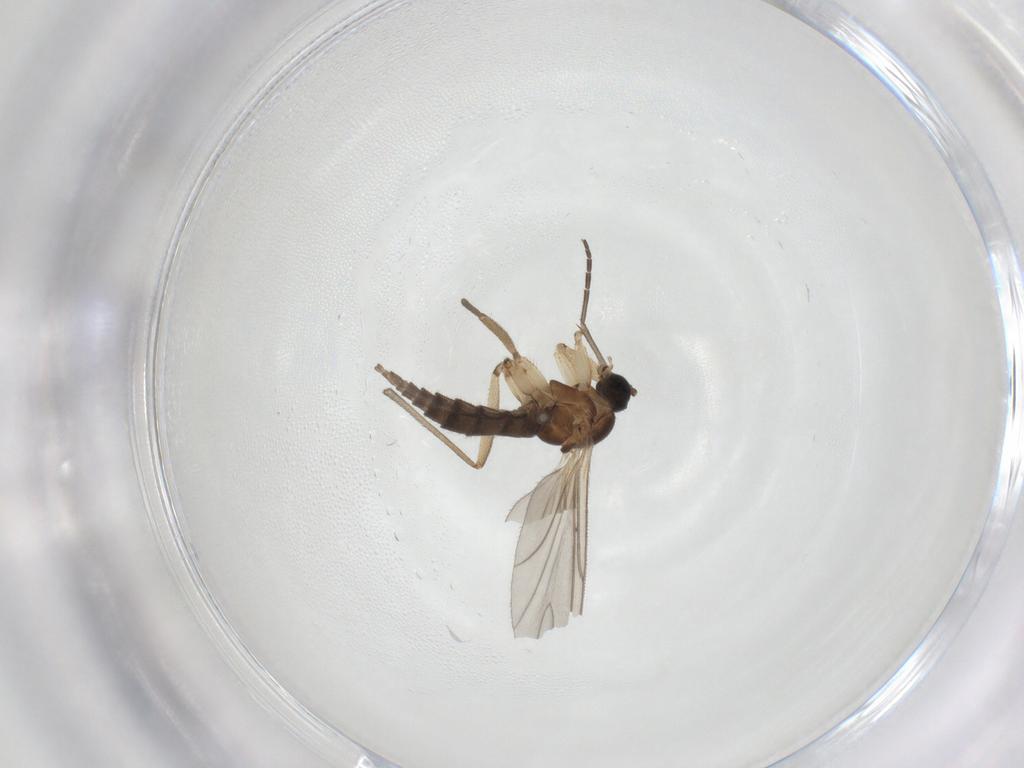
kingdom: Animalia
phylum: Arthropoda
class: Insecta
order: Diptera
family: Sciaridae
